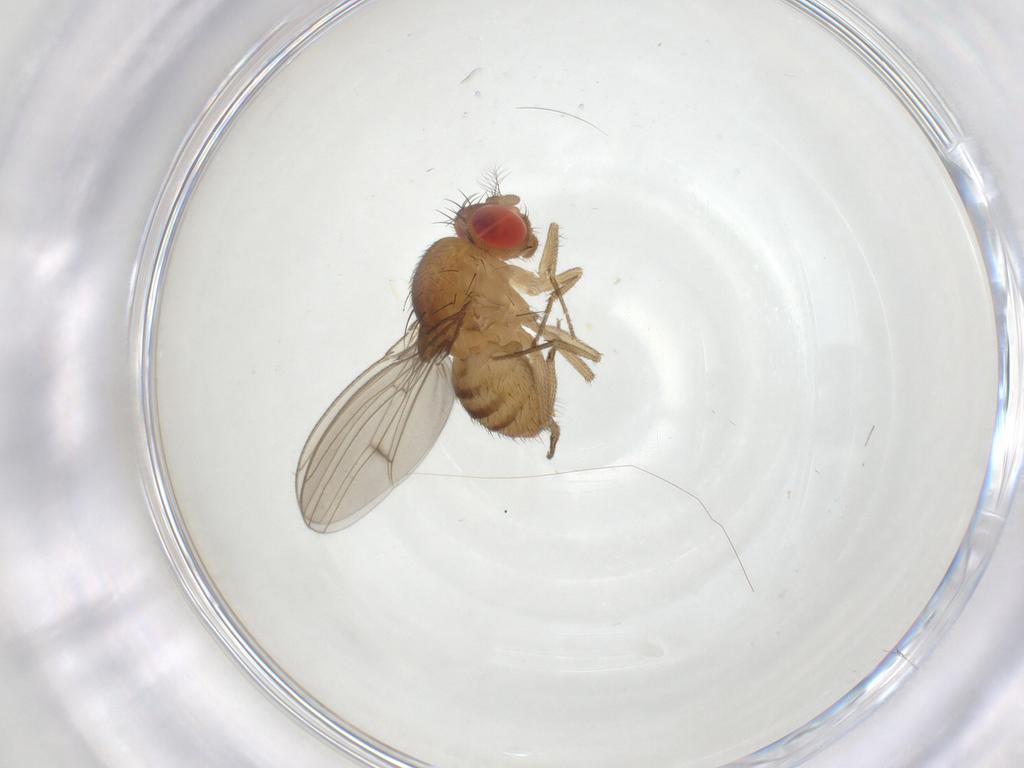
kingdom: Animalia
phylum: Arthropoda
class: Insecta
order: Diptera
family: Drosophilidae
